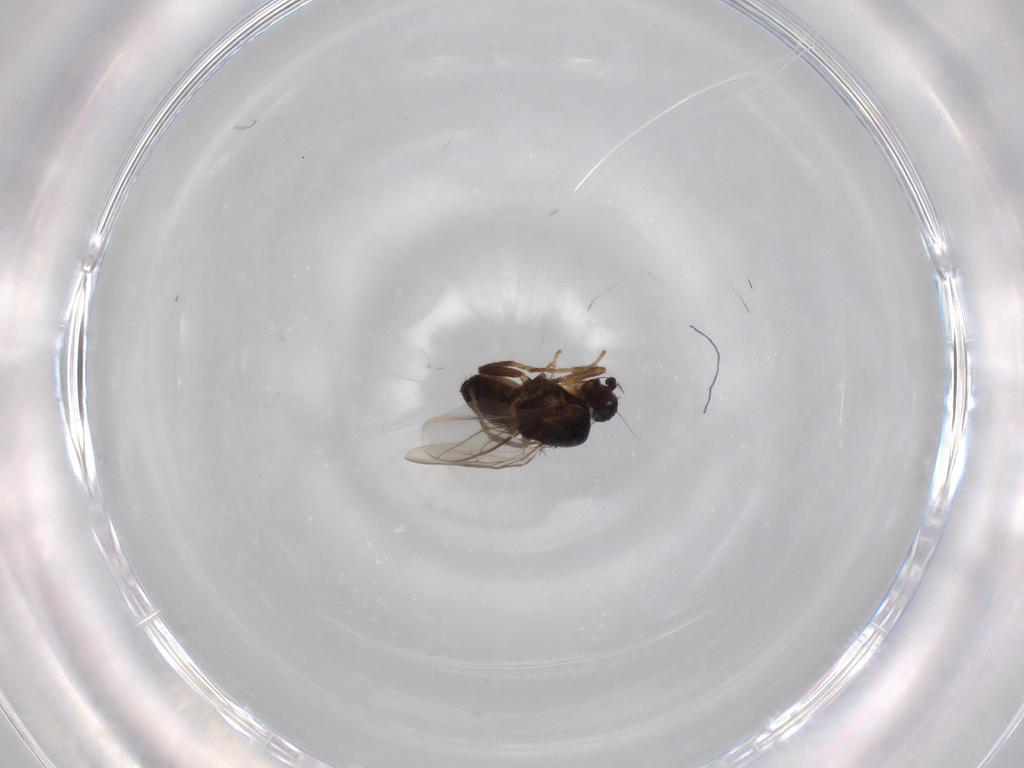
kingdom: Animalia
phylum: Arthropoda
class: Insecta
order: Diptera
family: Sphaeroceridae
